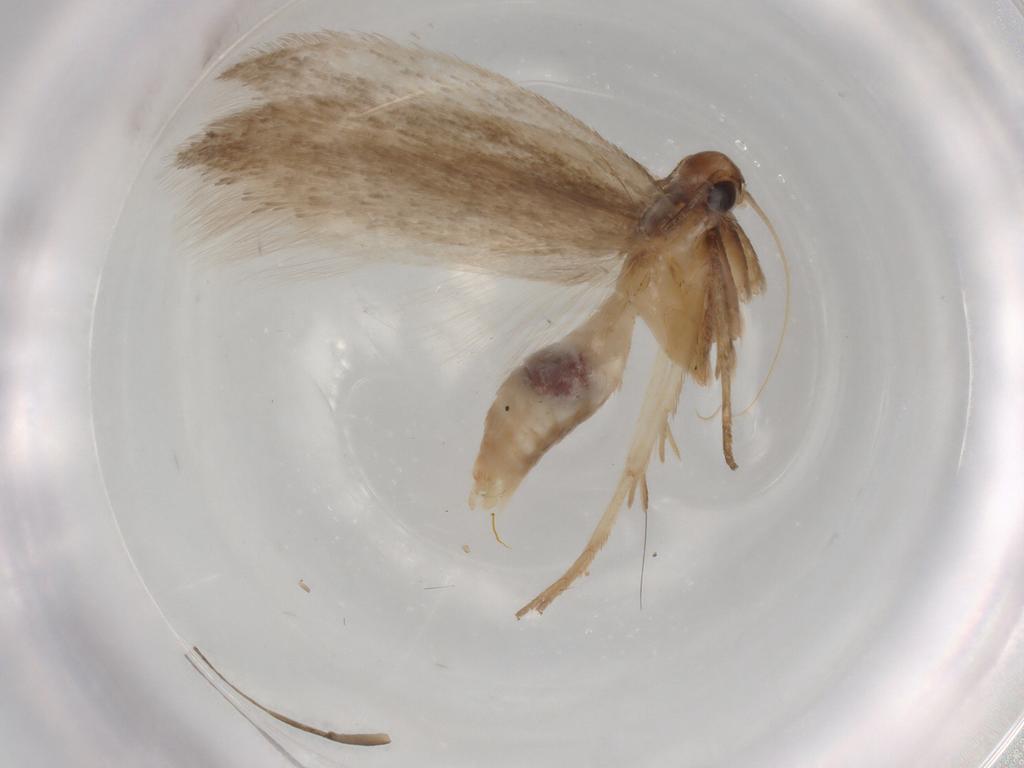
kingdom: Animalia
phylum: Arthropoda
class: Insecta
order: Lepidoptera
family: Gelechiidae
